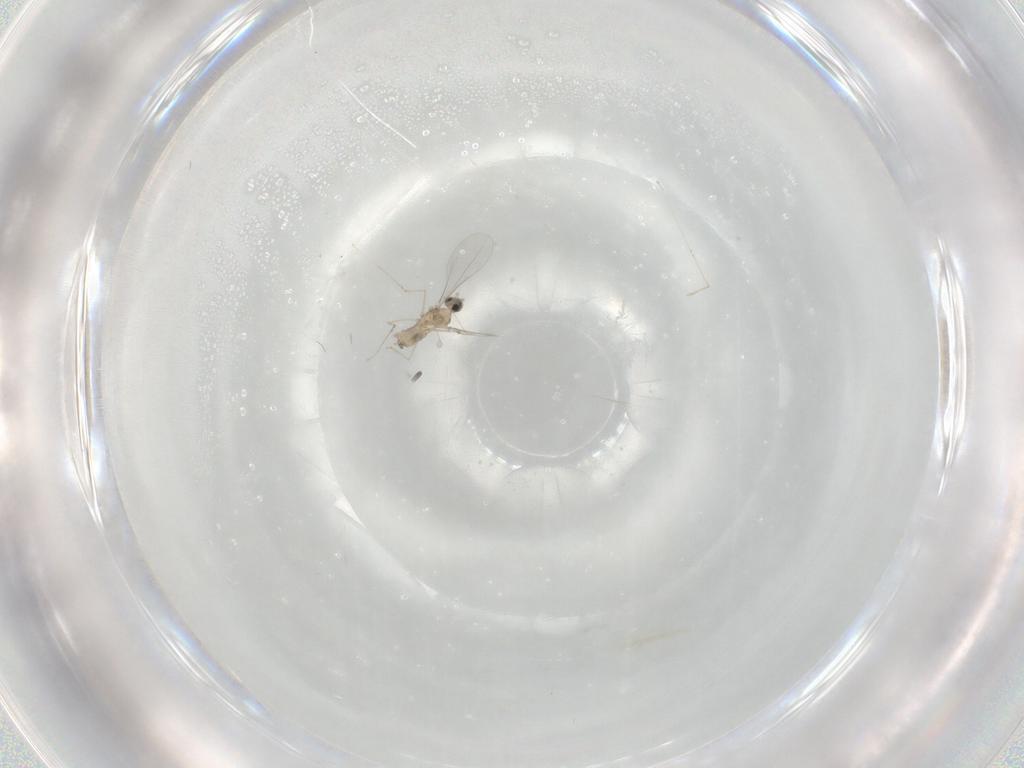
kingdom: Animalia
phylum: Arthropoda
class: Insecta
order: Diptera
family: Cecidomyiidae
